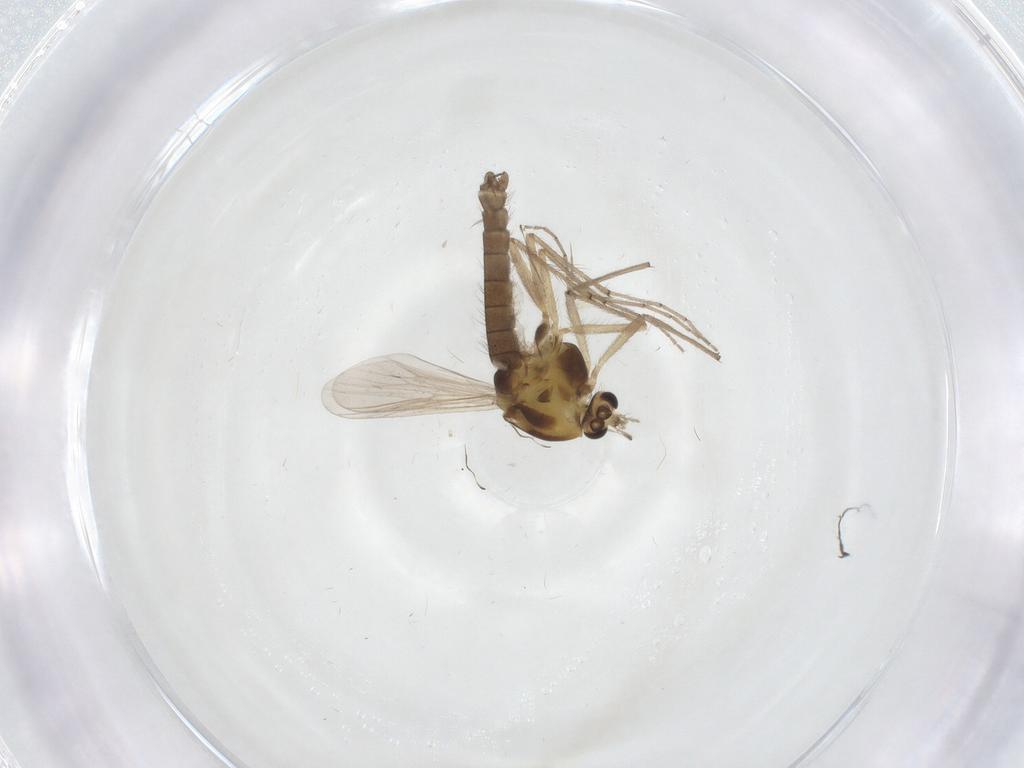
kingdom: Animalia
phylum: Arthropoda
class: Insecta
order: Diptera
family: Chironomidae
